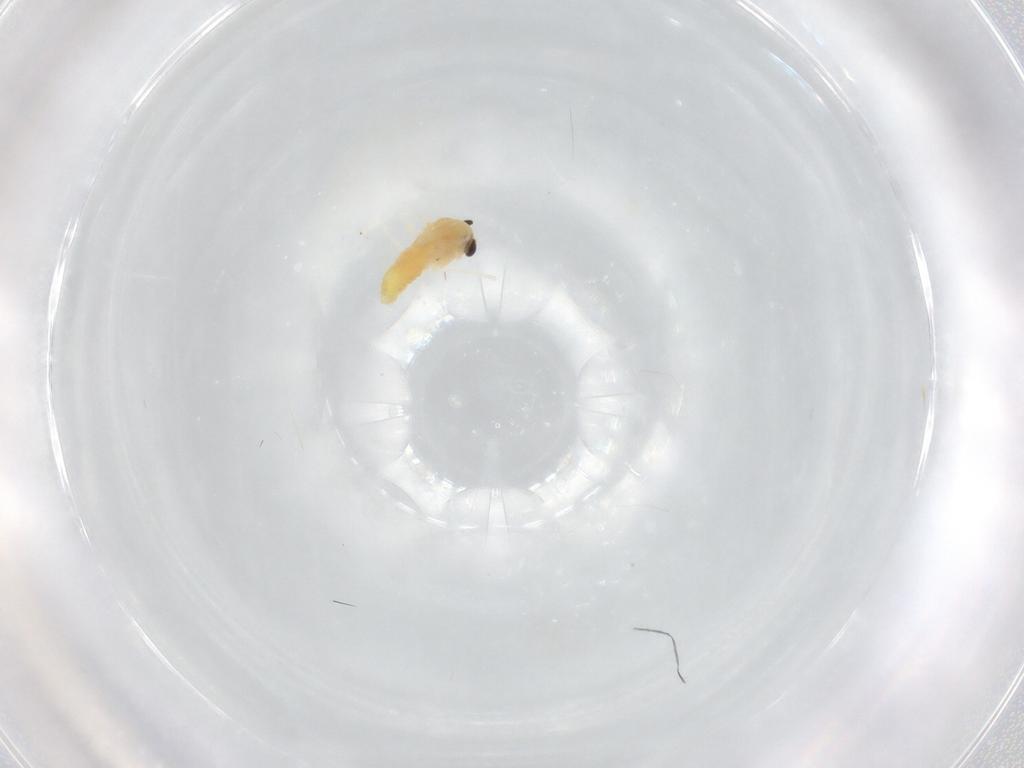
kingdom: Animalia
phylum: Arthropoda
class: Insecta
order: Diptera
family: Chironomidae
